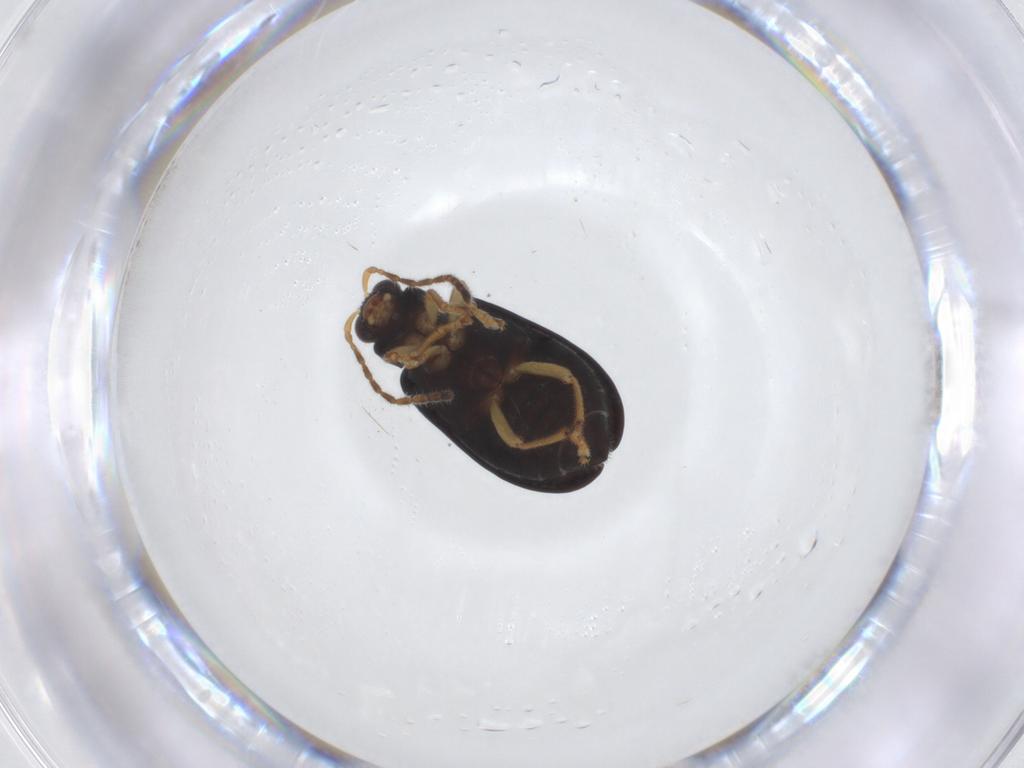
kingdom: Animalia
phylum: Arthropoda
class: Insecta
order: Coleoptera
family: Chrysomelidae
